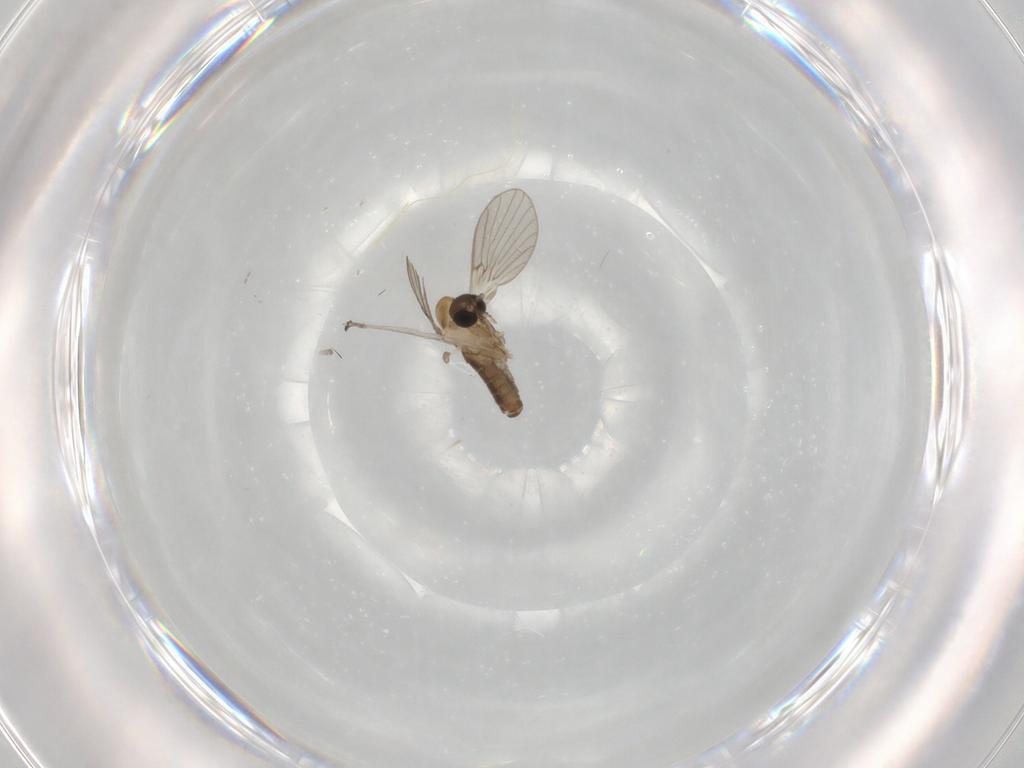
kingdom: Animalia
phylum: Arthropoda
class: Insecta
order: Diptera
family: Psychodidae
